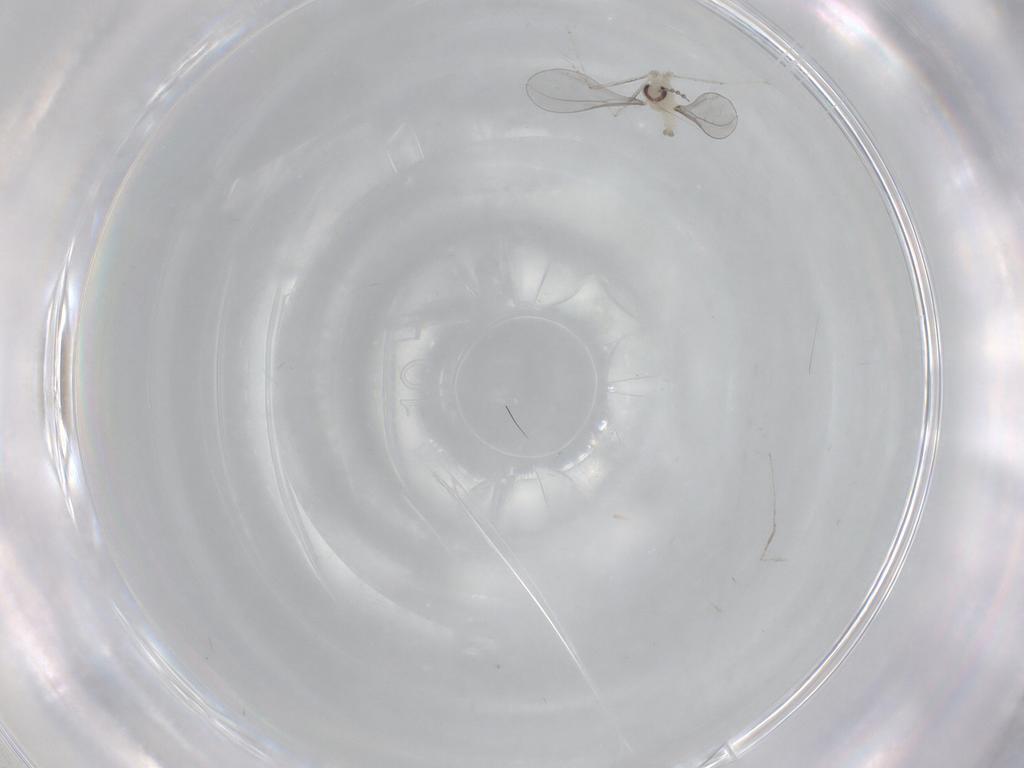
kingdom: Animalia
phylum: Arthropoda
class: Insecta
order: Diptera
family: Cecidomyiidae
